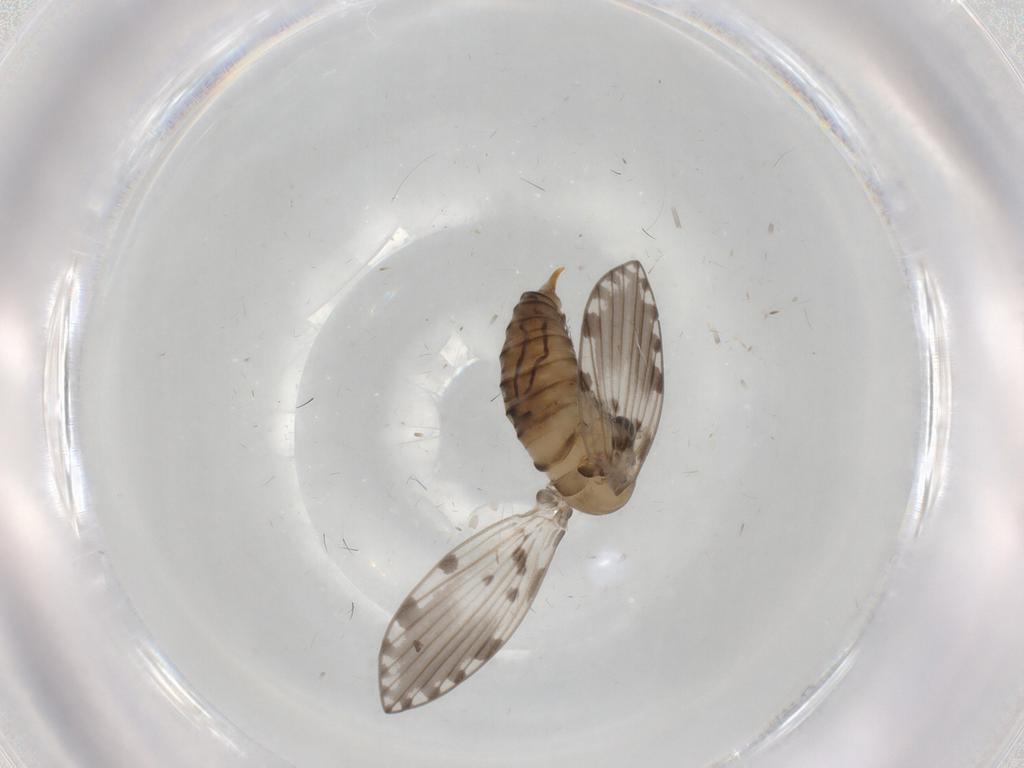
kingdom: Animalia
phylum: Arthropoda
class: Insecta
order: Diptera
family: Psychodidae
